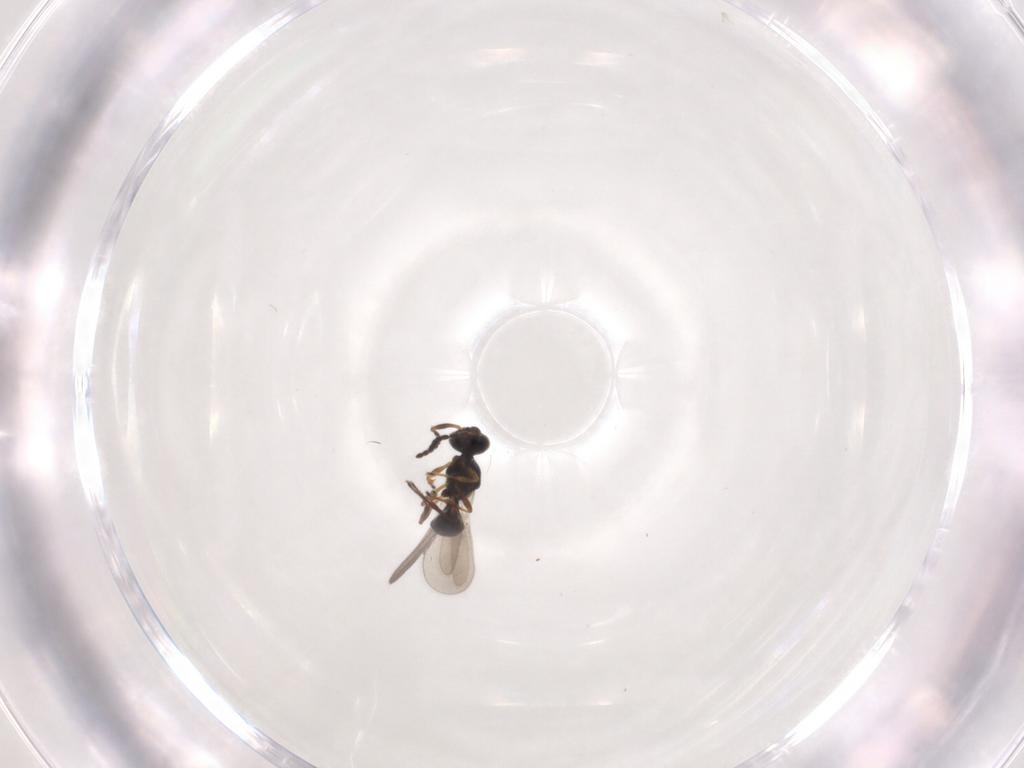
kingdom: Animalia
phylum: Arthropoda
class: Insecta
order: Hymenoptera
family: Platygastridae
